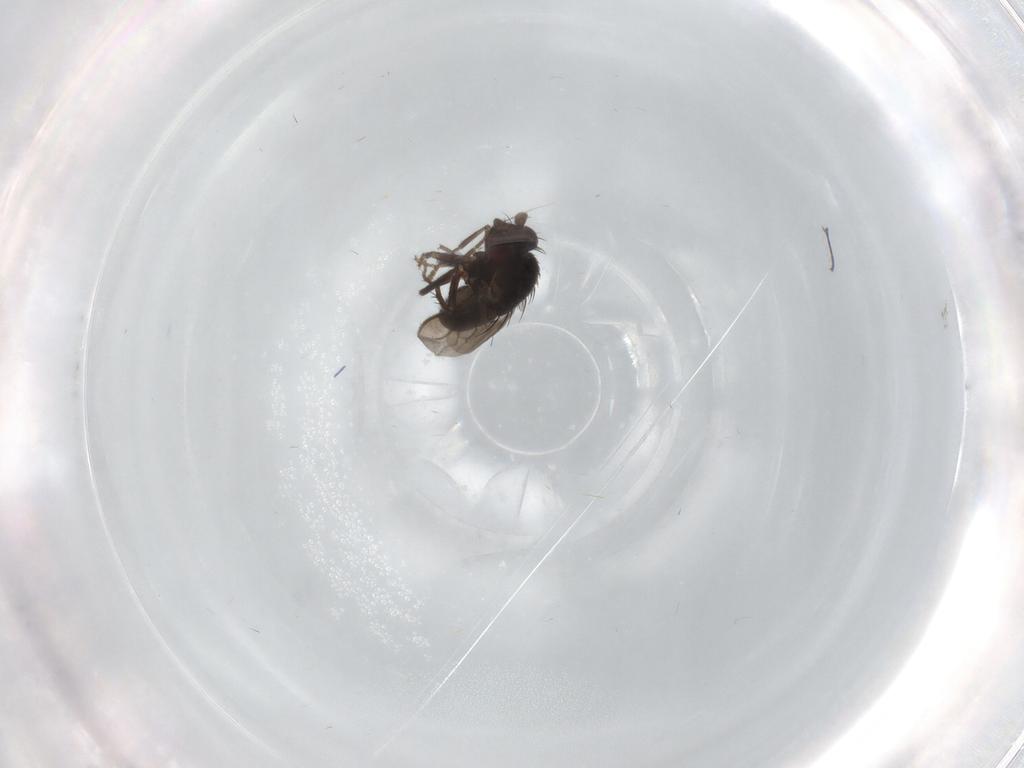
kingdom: Animalia
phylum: Arthropoda
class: Insecta
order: Diptera
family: Sphaeroceridae
